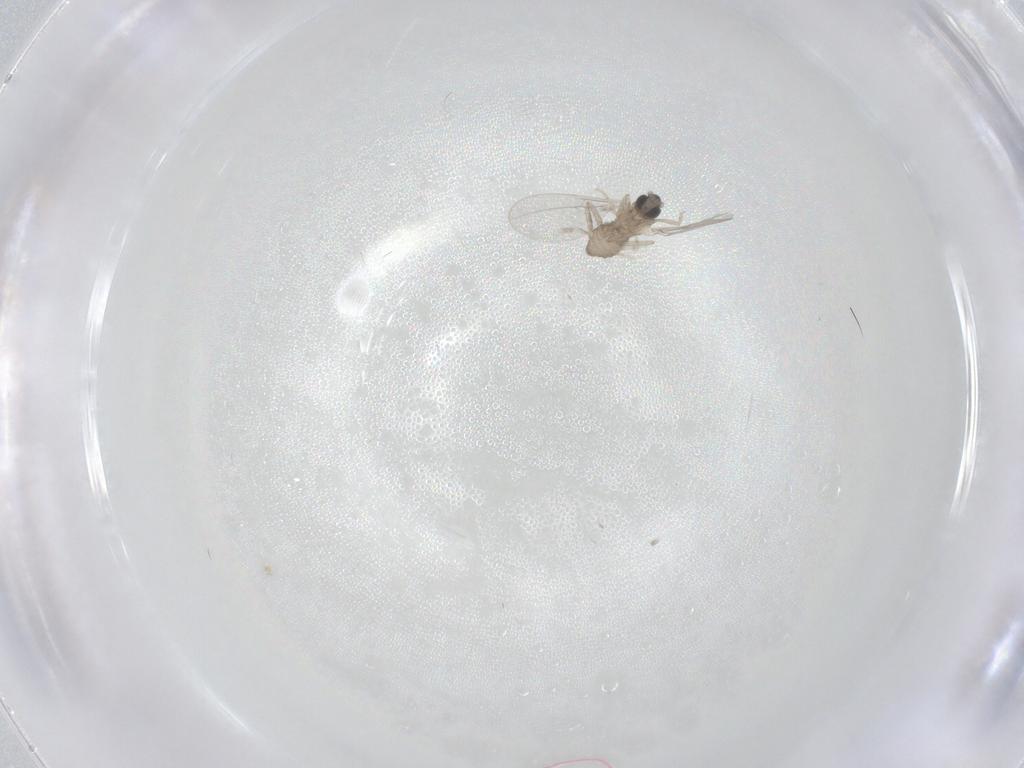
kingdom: Animalia
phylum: Arthropoda
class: Insecta
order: Diptera
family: Cecidomyiidae
